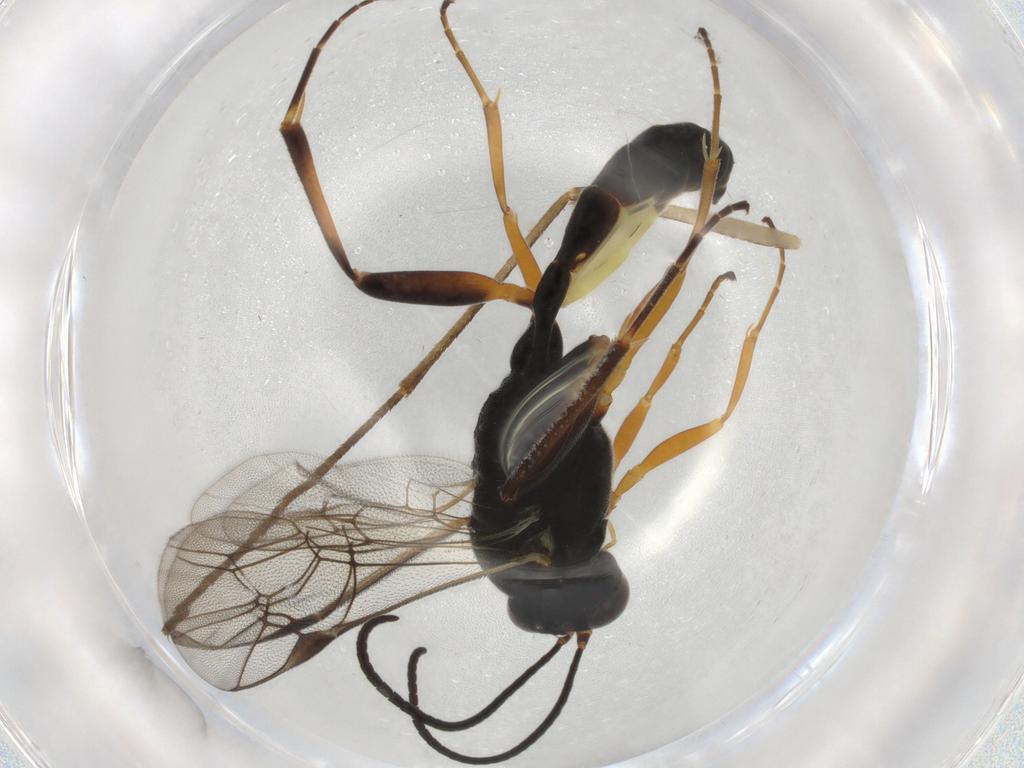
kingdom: Animalia
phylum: Arthropoda
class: Insecta
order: Hymenoptera
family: Ichneumonidae
